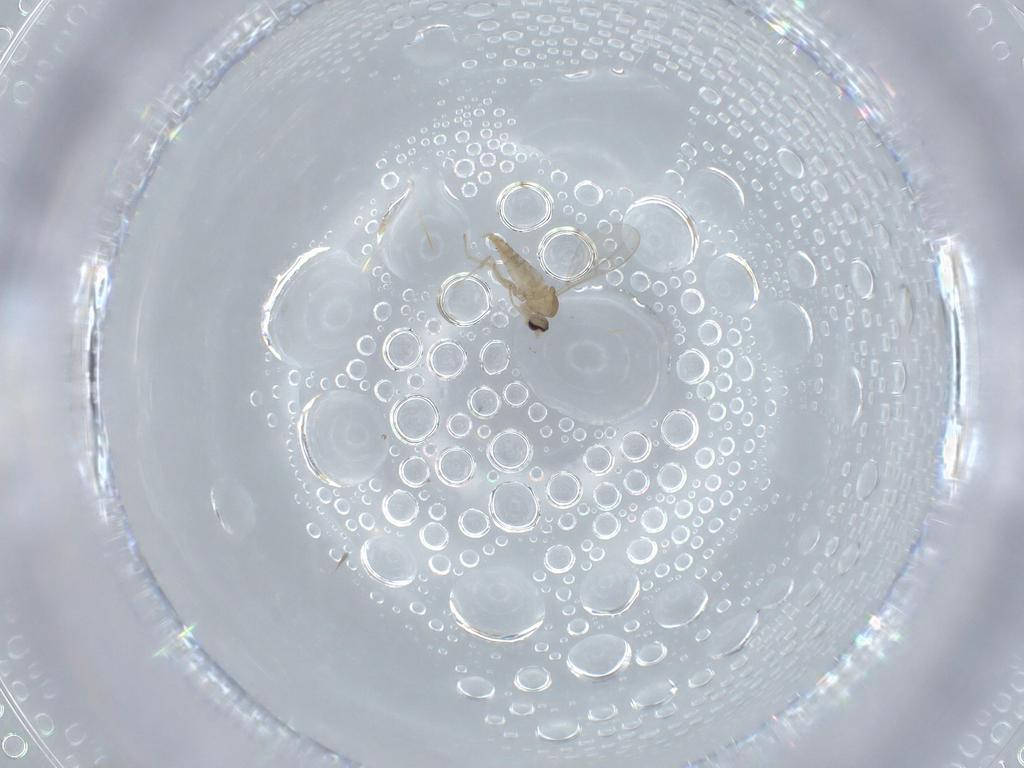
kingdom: Animalia
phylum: Arthropoda
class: Insecta
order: Diptera
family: Cecidomyiidae
